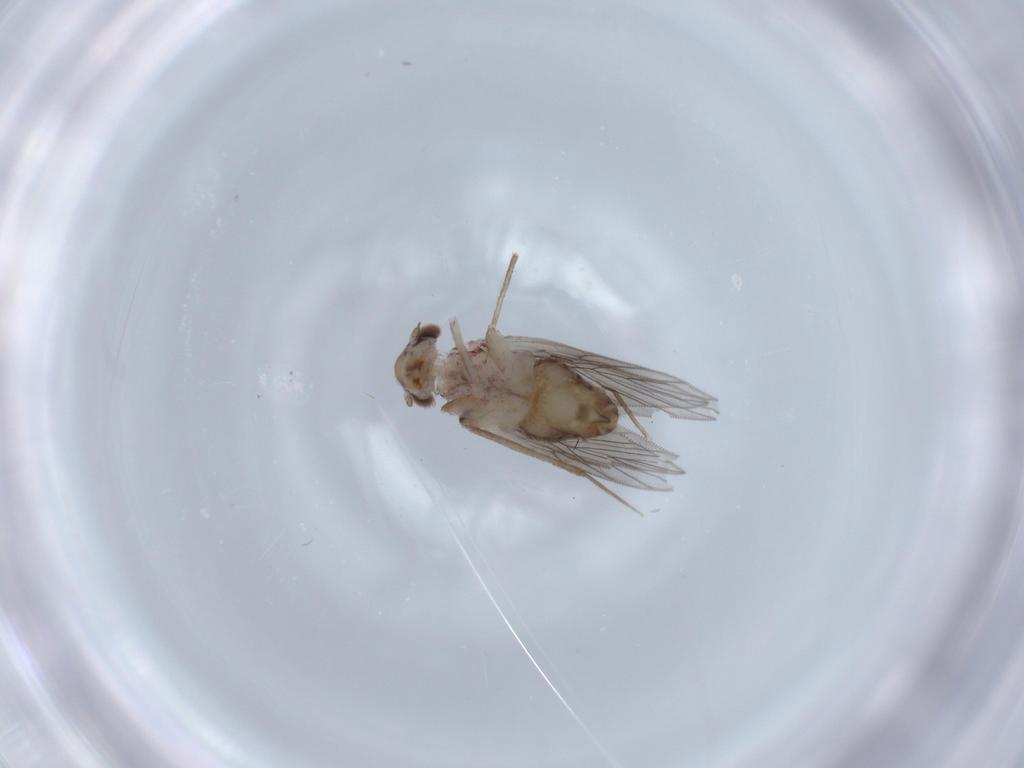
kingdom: Animalia
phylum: Arthropoda
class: Insecta
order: Psocodea
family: Lepidopsocidae
